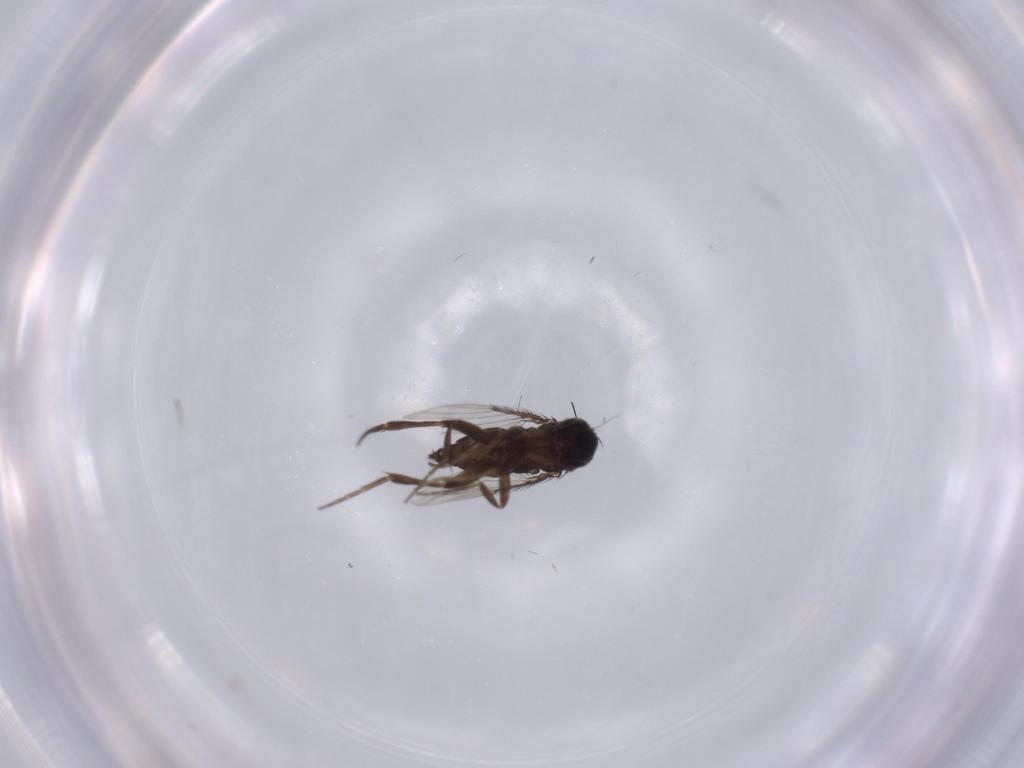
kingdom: Animalia
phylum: Arthropoda
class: Insecta
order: Diptera
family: Phoridae
